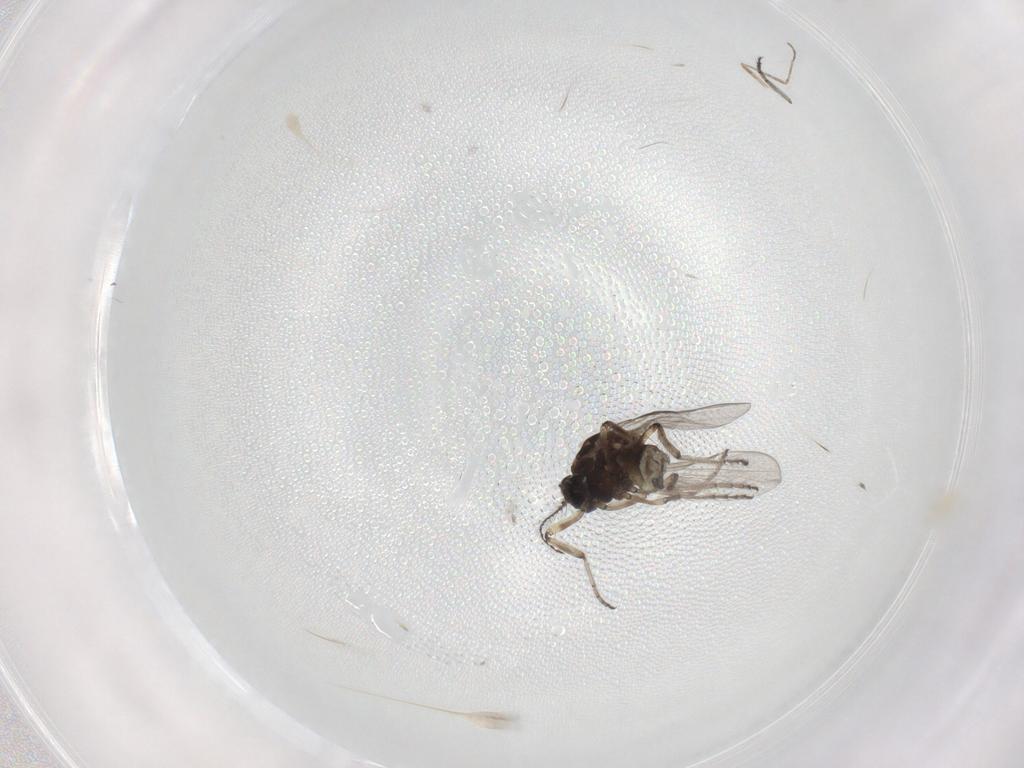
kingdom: Animalia
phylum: Arthropoda
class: Insecta
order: Diptera
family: Ceratopogonidae
